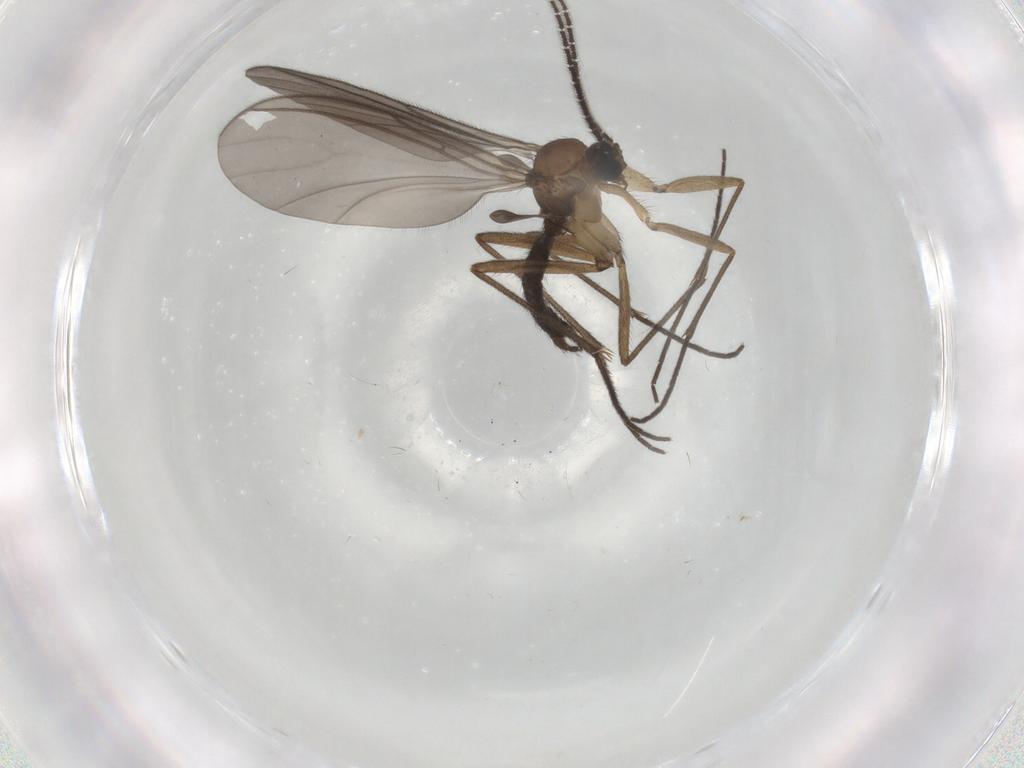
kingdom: Animalia
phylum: Arthropoda
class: Insecta
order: Diptera
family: Sciaridae
